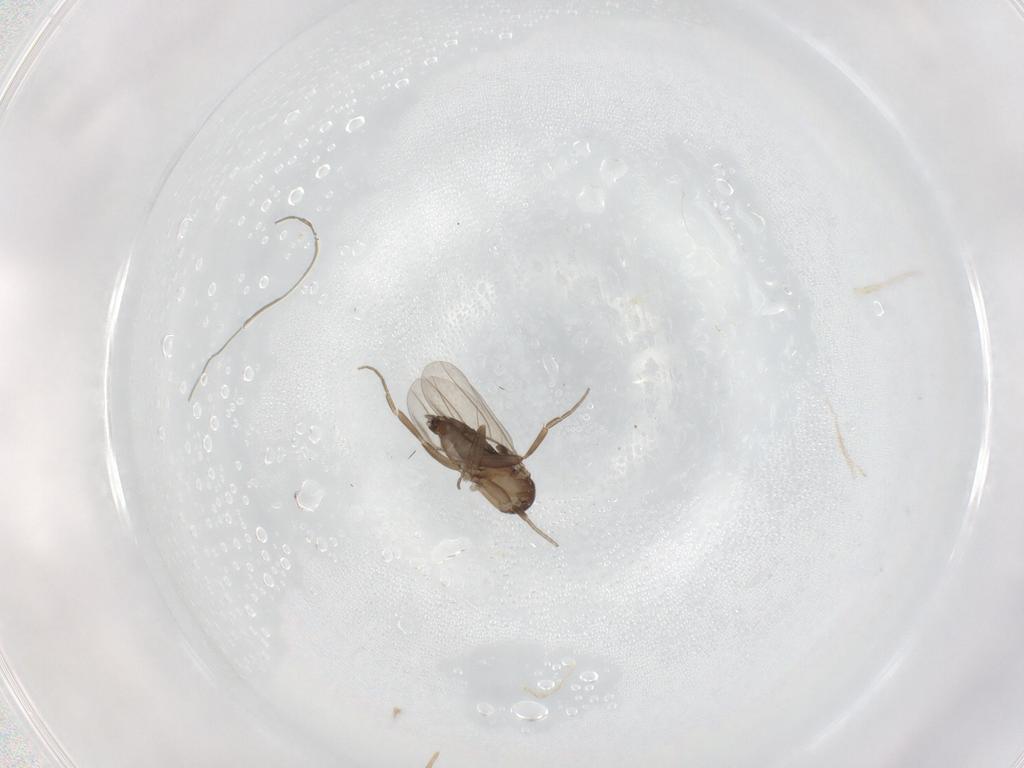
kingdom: Animalia
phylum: Arthropoda
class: Insecta
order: Diptera
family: Phoridae
